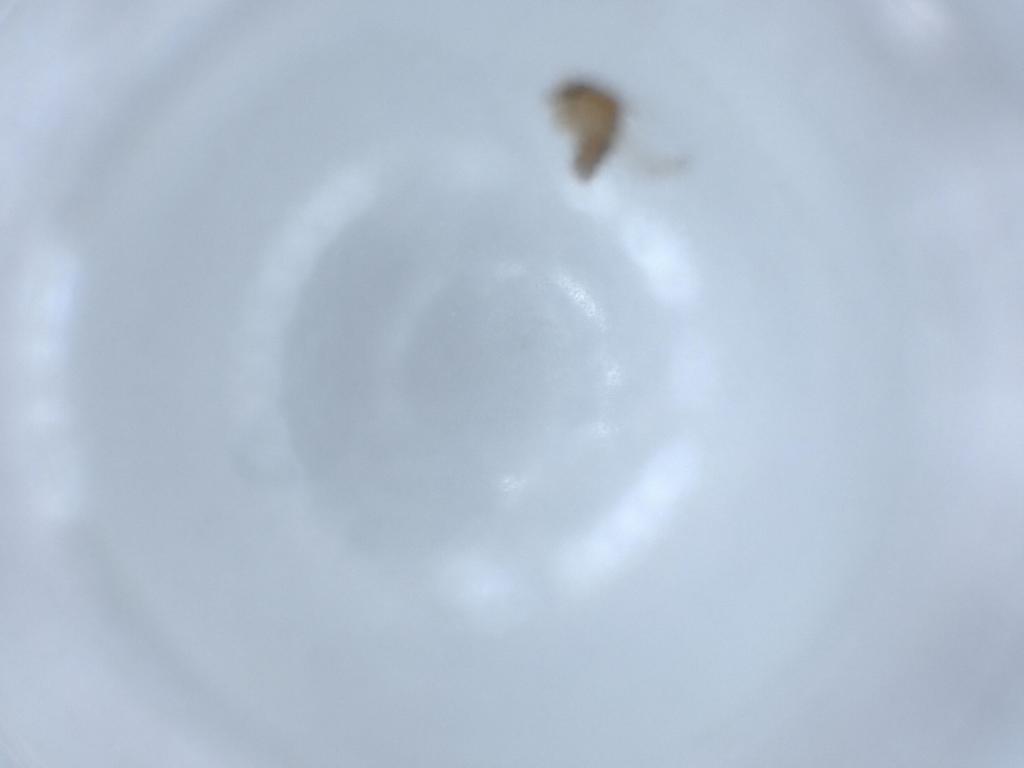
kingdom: Animalia
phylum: Arthropoda
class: Insecta
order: Diptera
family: Psychodidae
